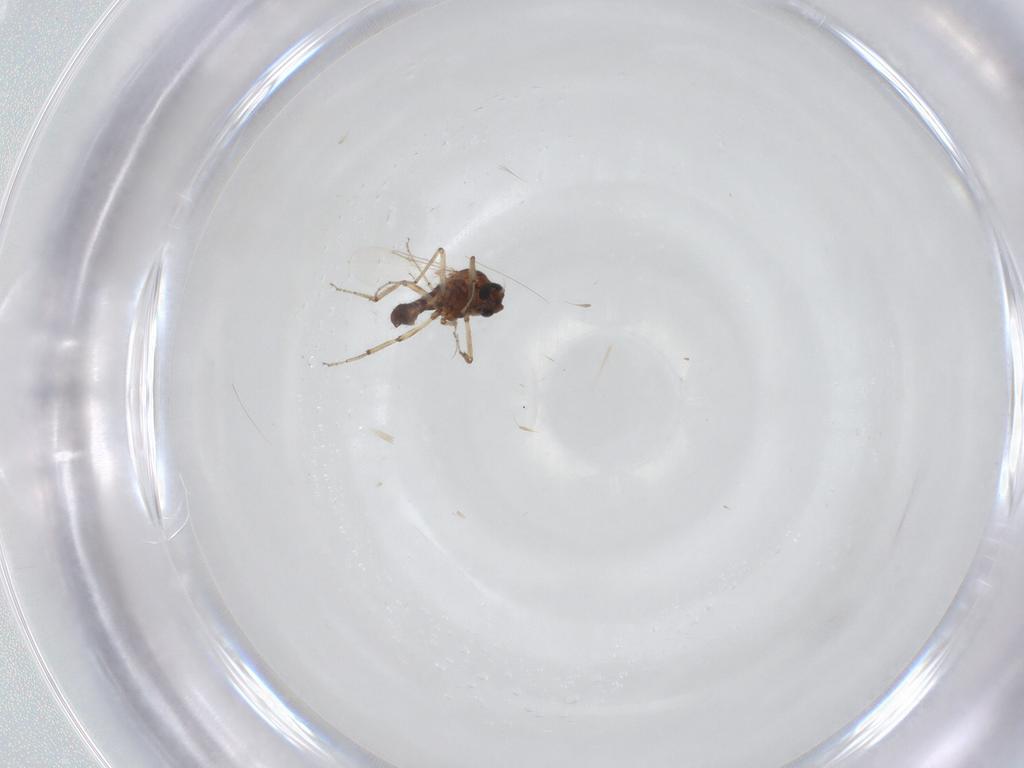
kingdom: Animalia
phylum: Arthropoda
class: Insecta
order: Diptera
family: Ceratopogonidae
